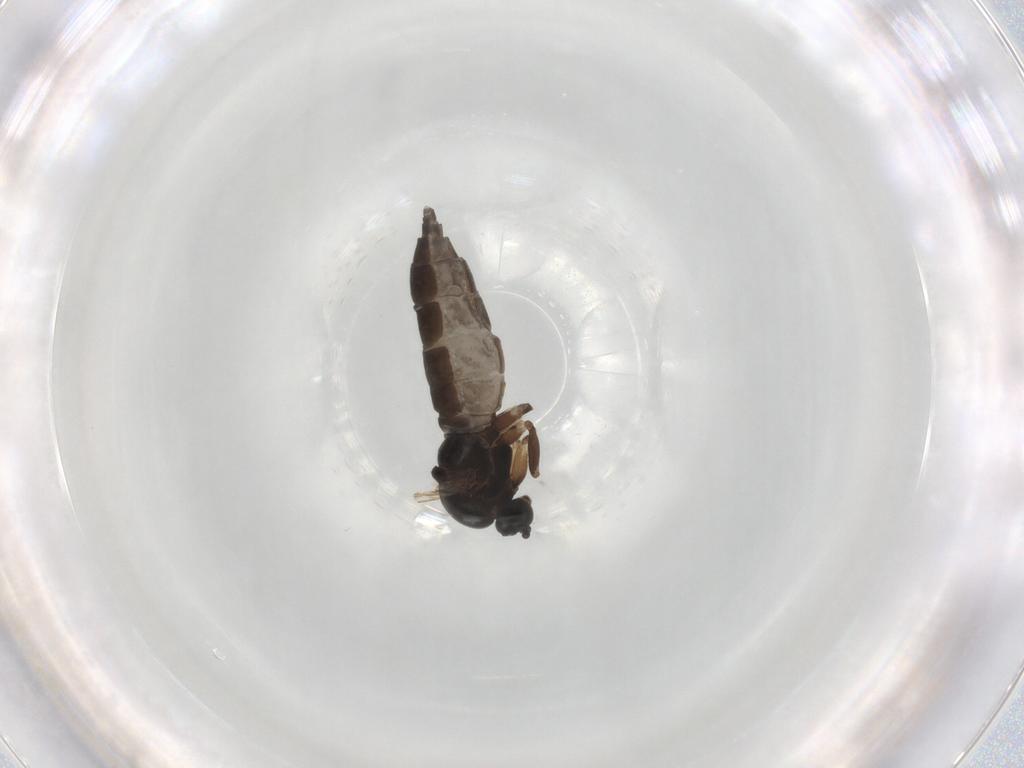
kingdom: Animalia
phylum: Arthropoda
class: Insecta
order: Diptera
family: Sciaridae
